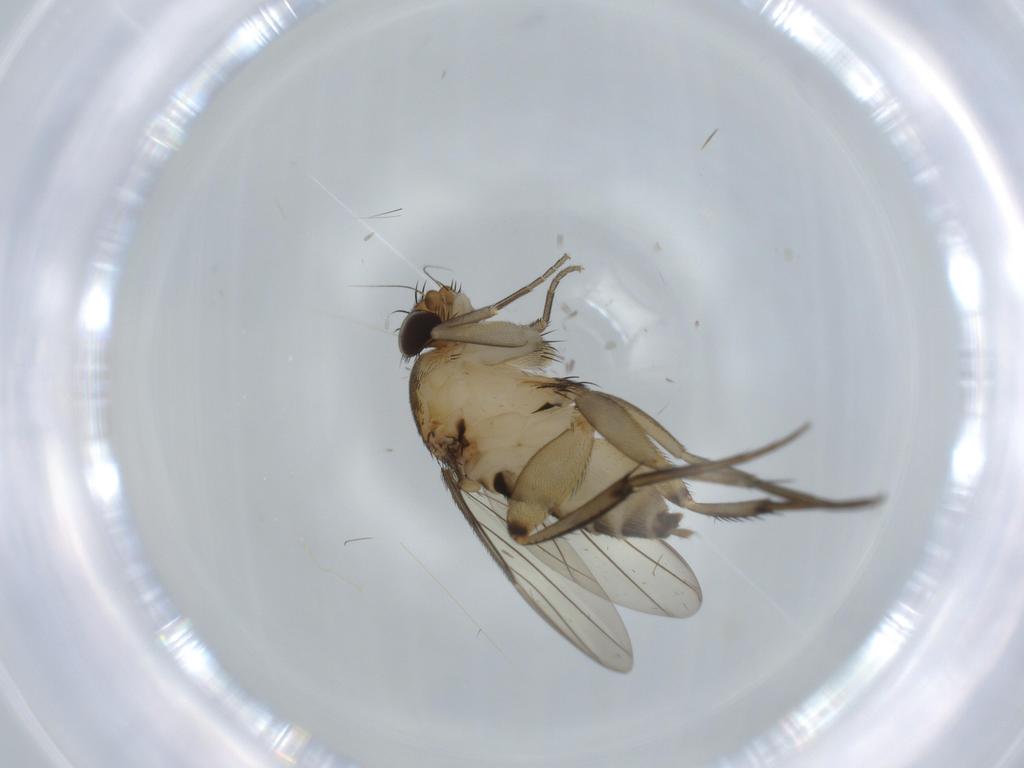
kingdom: Animalia
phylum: Arthropoda
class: Insecta
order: Diptera
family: Phoridae
